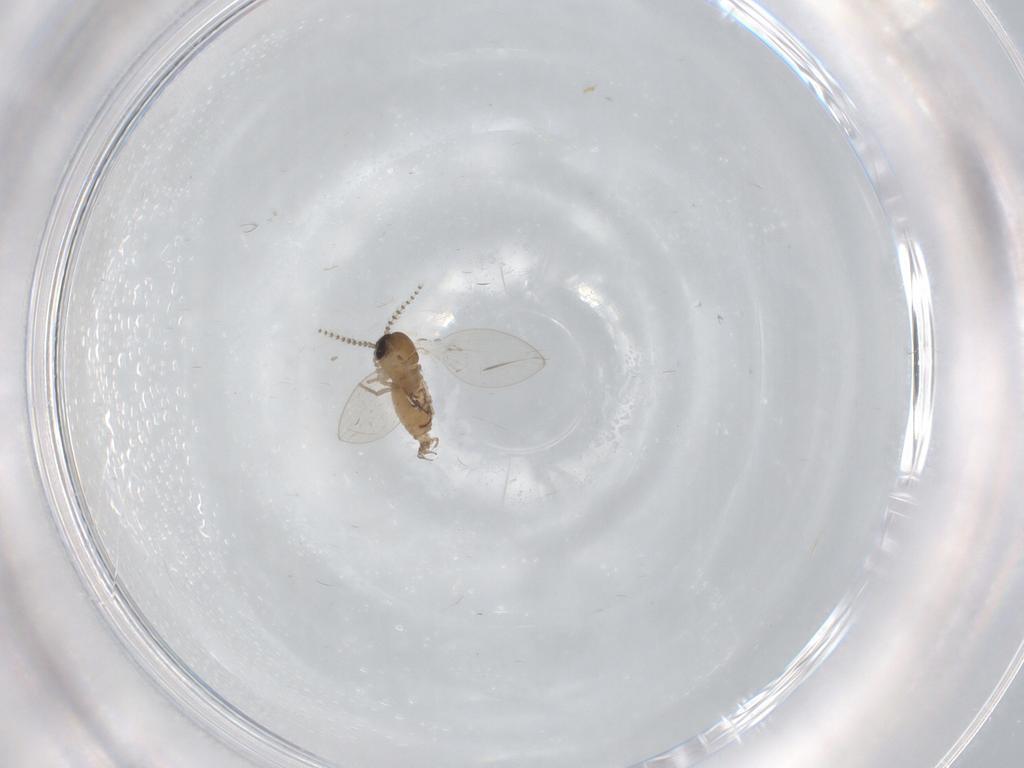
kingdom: Animalia
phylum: Arthropoda
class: Insecta
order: Diptera
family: Psychodidae
